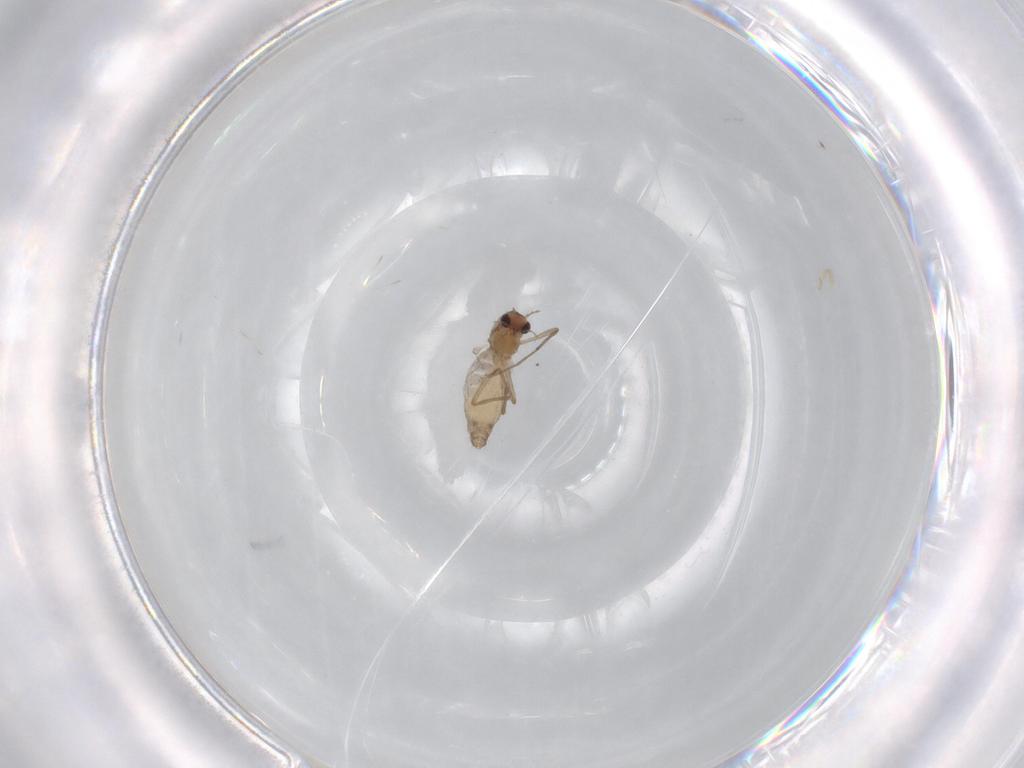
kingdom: Animalia
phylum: Arthropoda
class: Insecta
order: Diptera
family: Chironomidae
